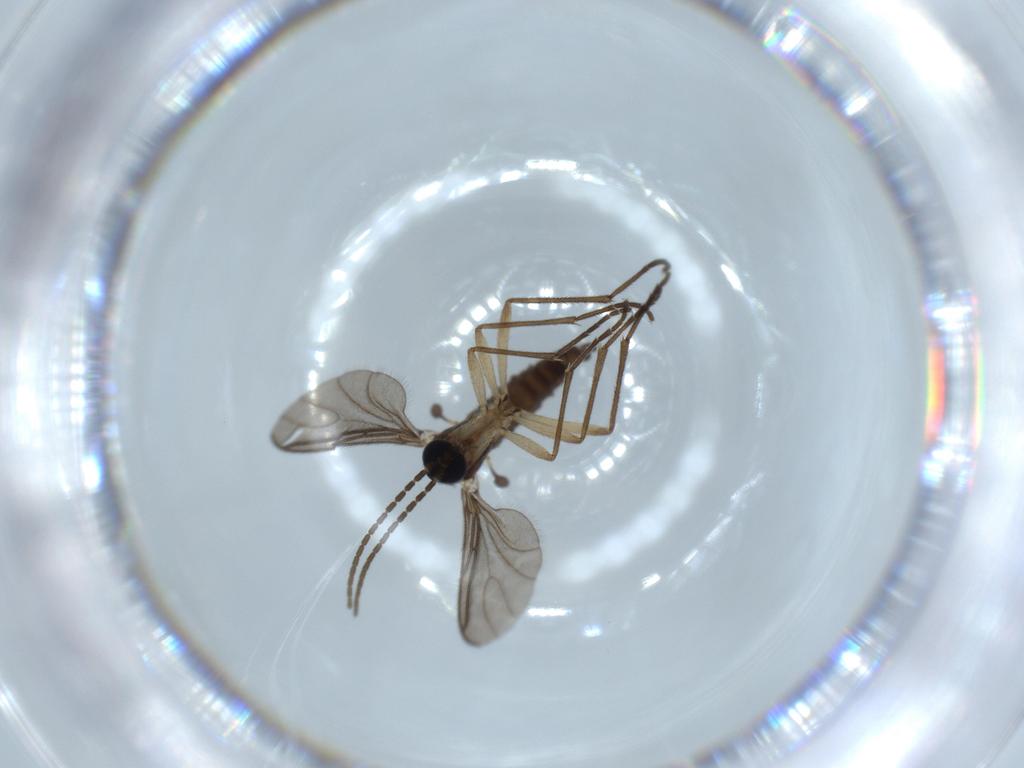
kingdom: Animalia
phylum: Arthropoda
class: Insecta
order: Diptera
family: Sciaridae
